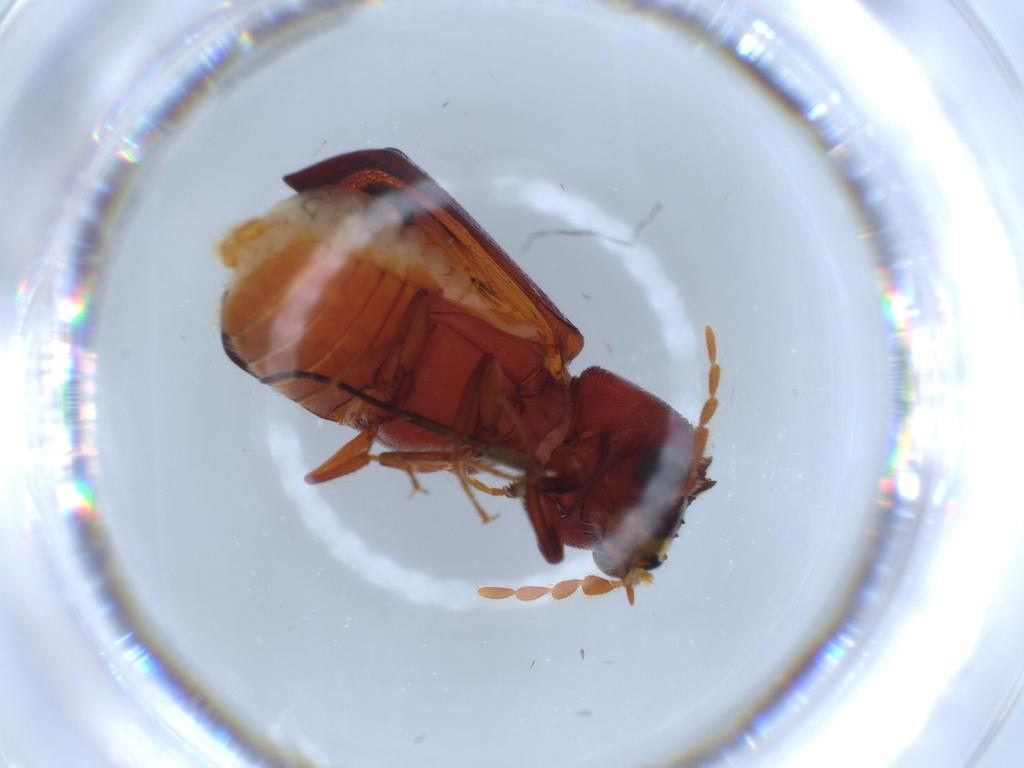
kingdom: Animalia
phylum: Arthropoda
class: Insecta
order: Coleoptera
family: Bostrichidae
